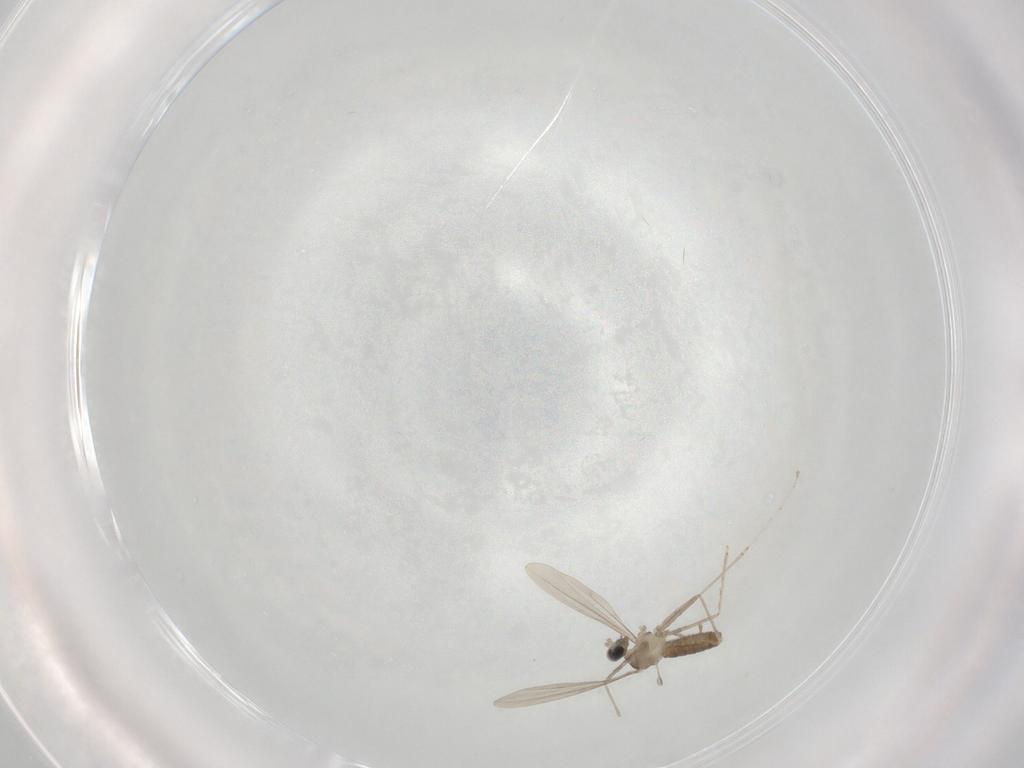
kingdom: Animalia
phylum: Arthropoda
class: Insecta
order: Diptera
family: Cecidomyiidae
